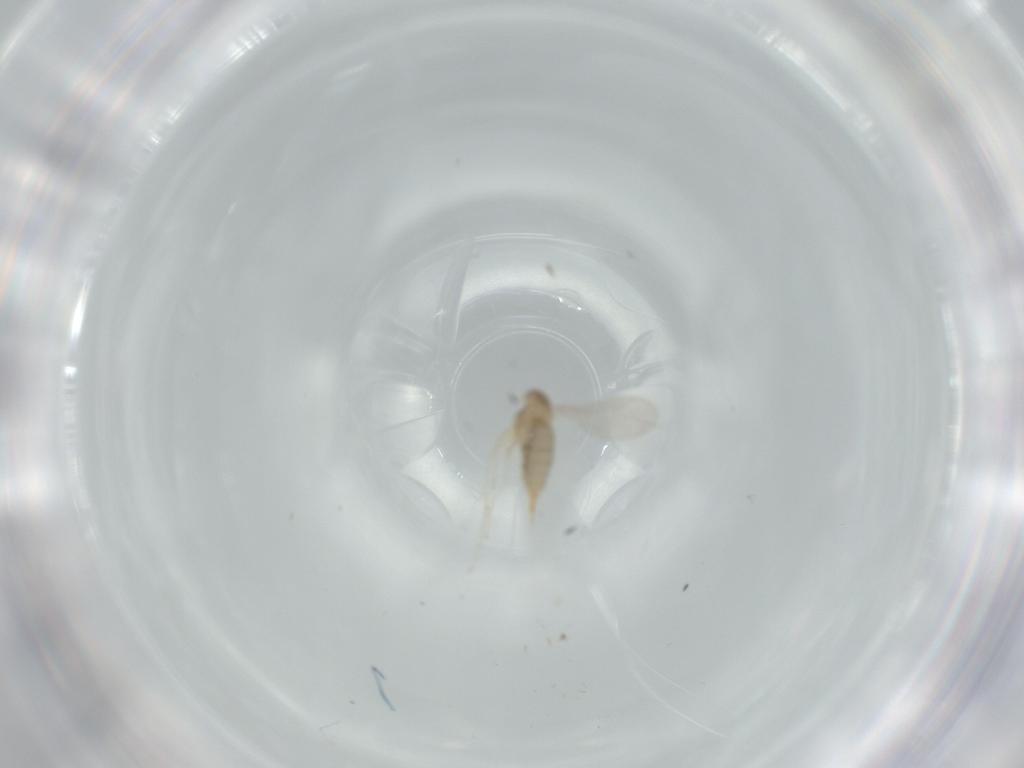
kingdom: Animalia
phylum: Arthropoda
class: Insecta
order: Diptera
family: Cecidomyiidae
